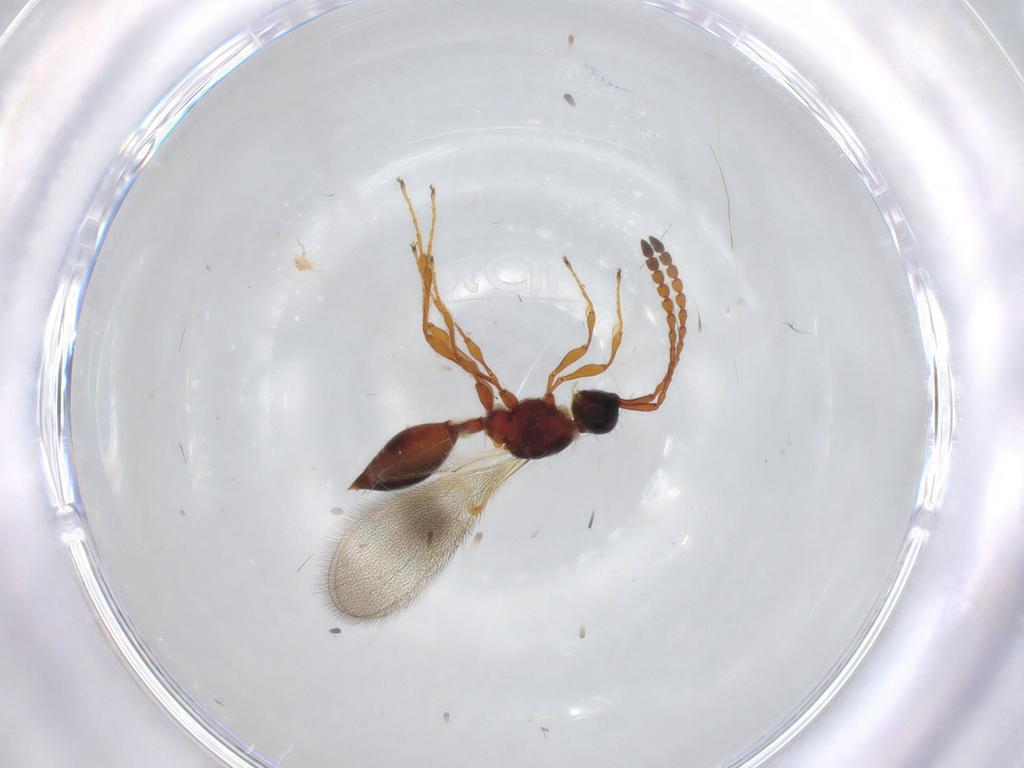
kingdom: Animalia
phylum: Arthropoda
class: Insecta
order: Hymenoptera
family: Diapriidae
